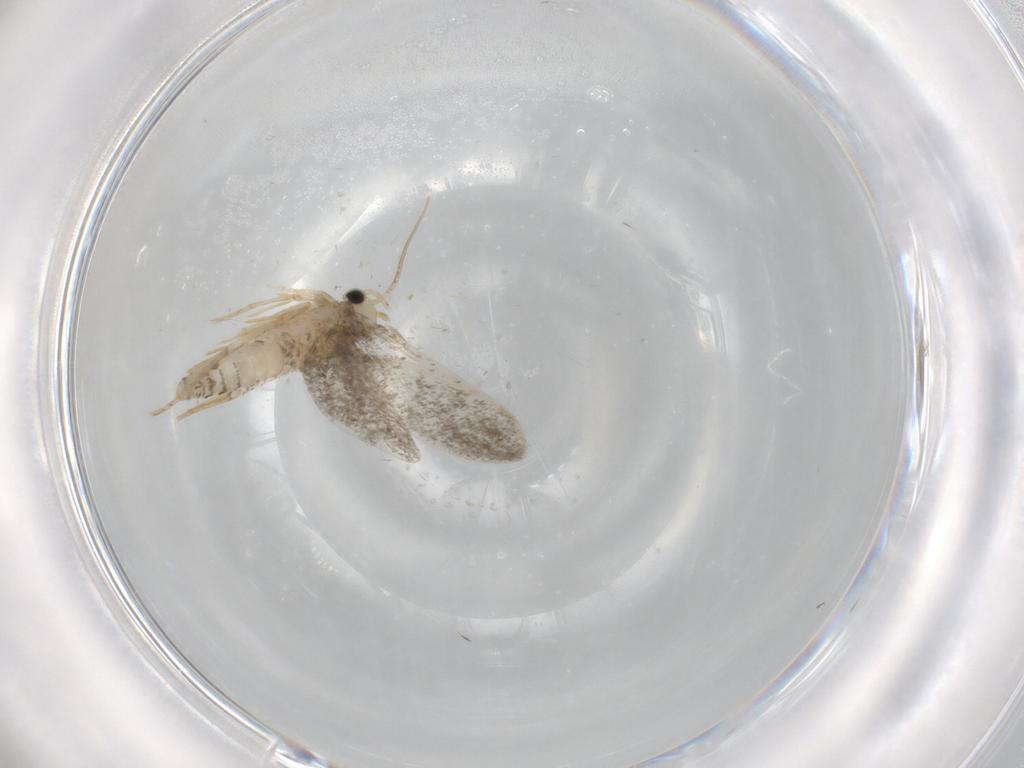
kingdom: Animalia
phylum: Arthropoda
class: Insecta
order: Lepidoptera
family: Psychidae
